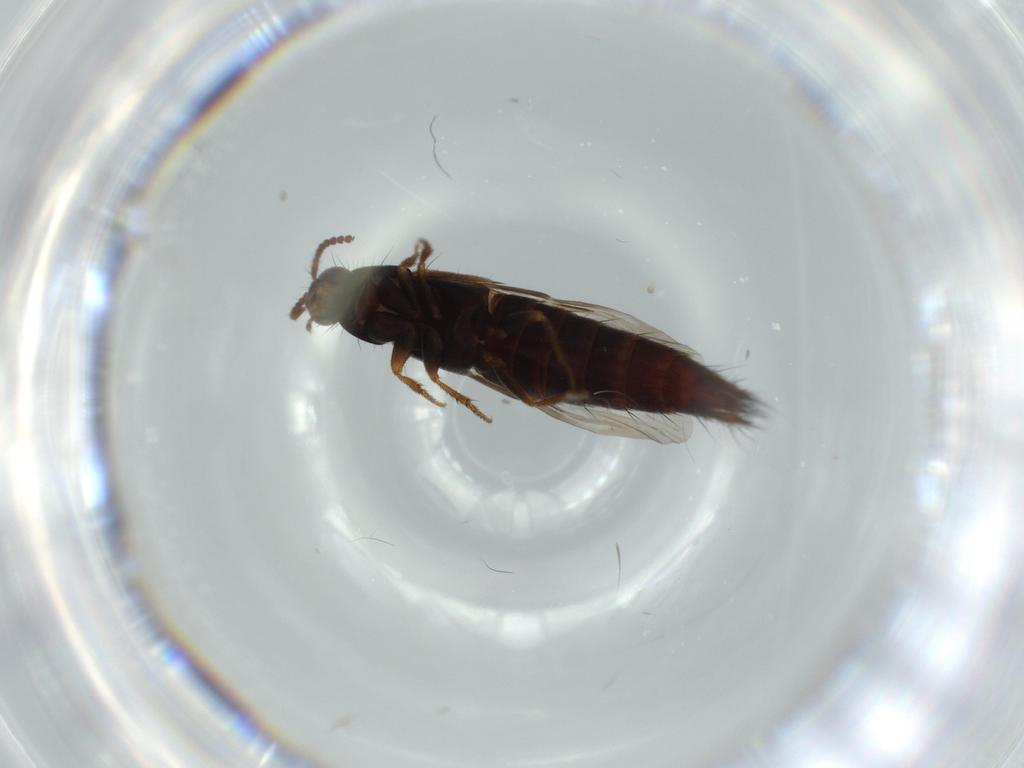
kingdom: Animalia
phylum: Arthropoda
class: Insecta
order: Coleoptera
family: Staphylinidae
